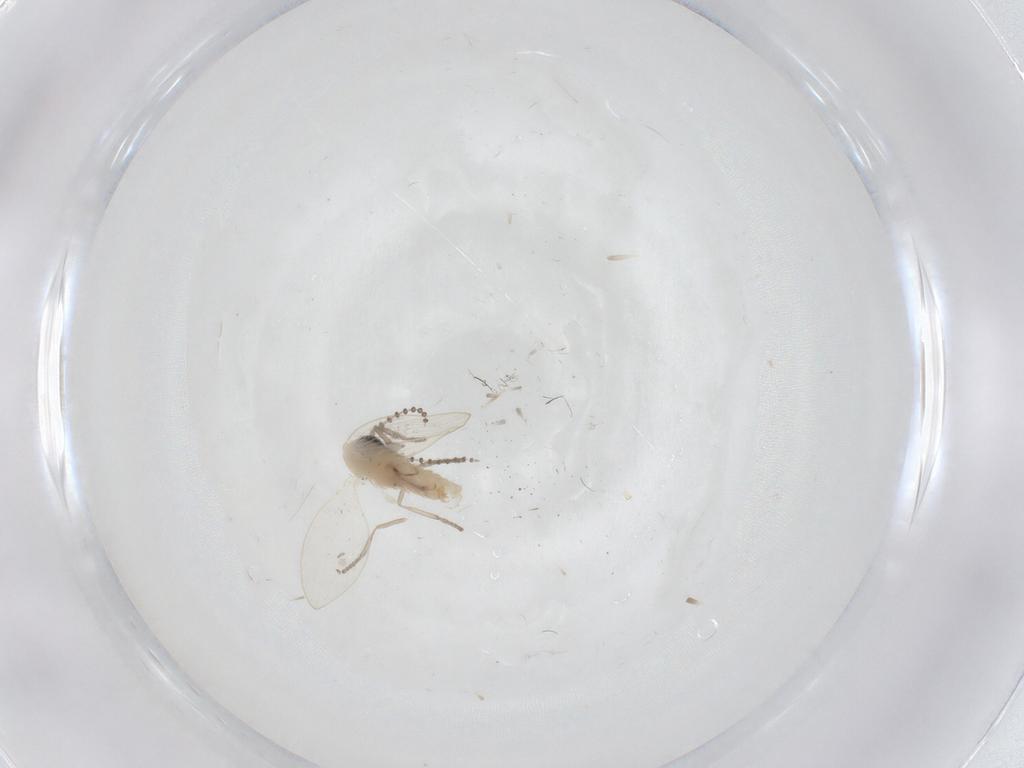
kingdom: Animalia
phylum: Arthropoda
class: Insecta
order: Diptera
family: Psychodidae
